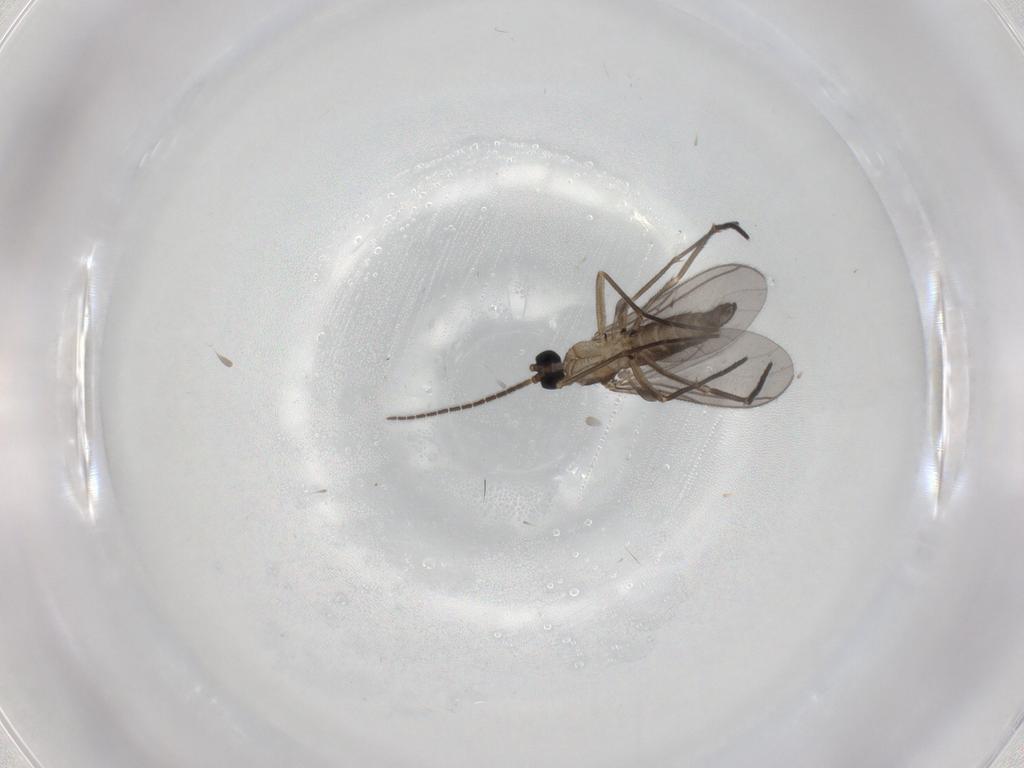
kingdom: Animalia
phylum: Arthropoda
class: Insecta
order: Diptera
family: Sciaridae
